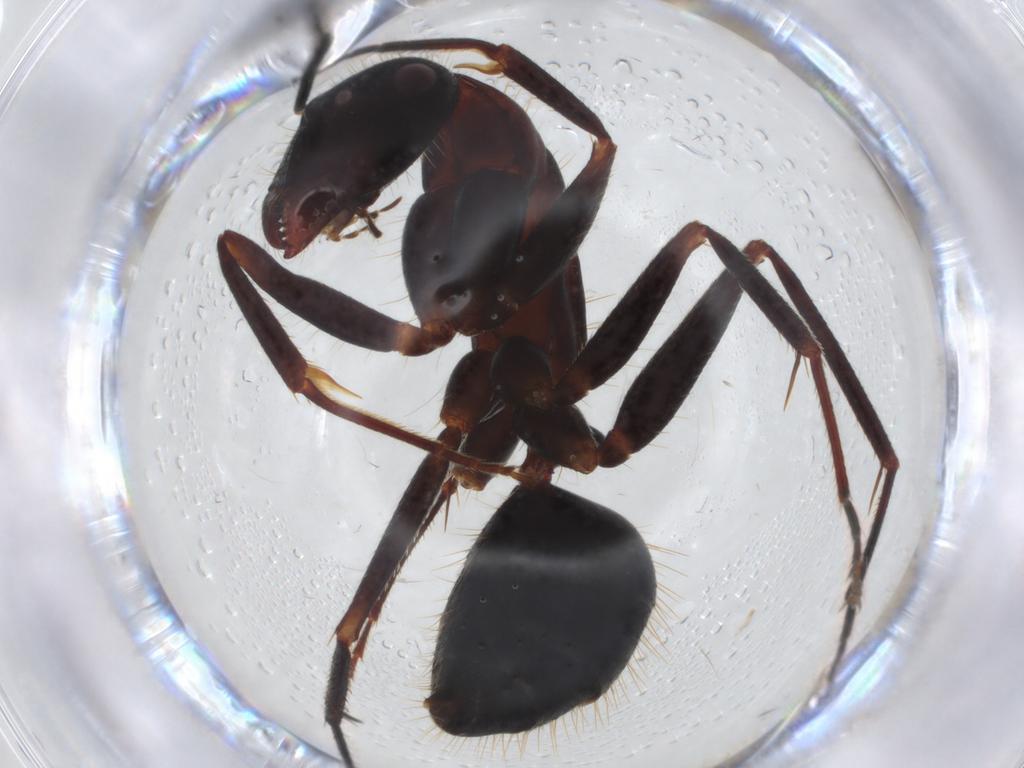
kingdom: Animalia
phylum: Arthropoda
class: Insecta
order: Hymenoptera
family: Formicidae
